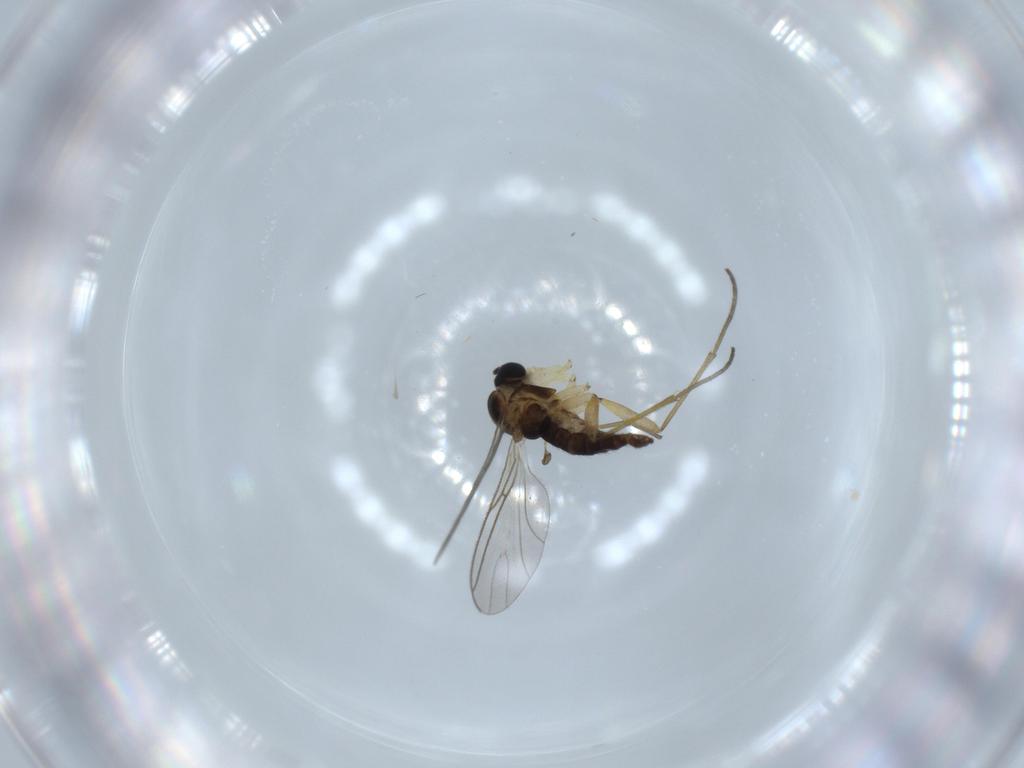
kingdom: Animalia
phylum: Arthropoda
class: Insecta
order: Diptera
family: Sciaridae
